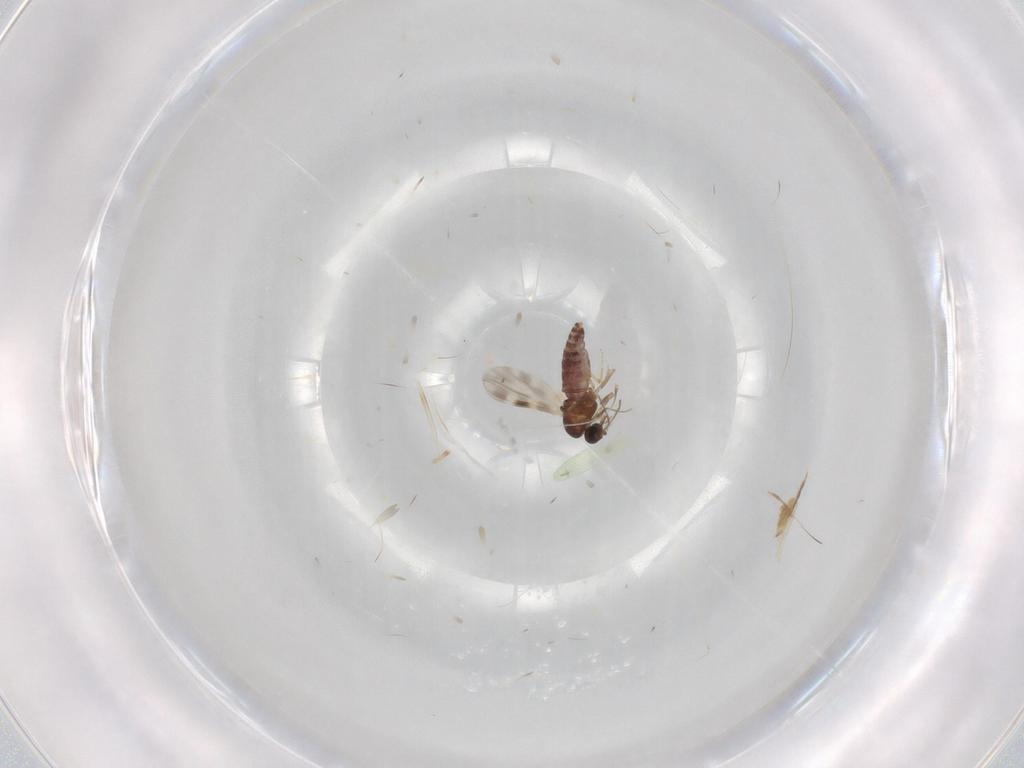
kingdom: Animalia
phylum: Arthropoda
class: Insecta
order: Diptera
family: Ceratopogonidae
